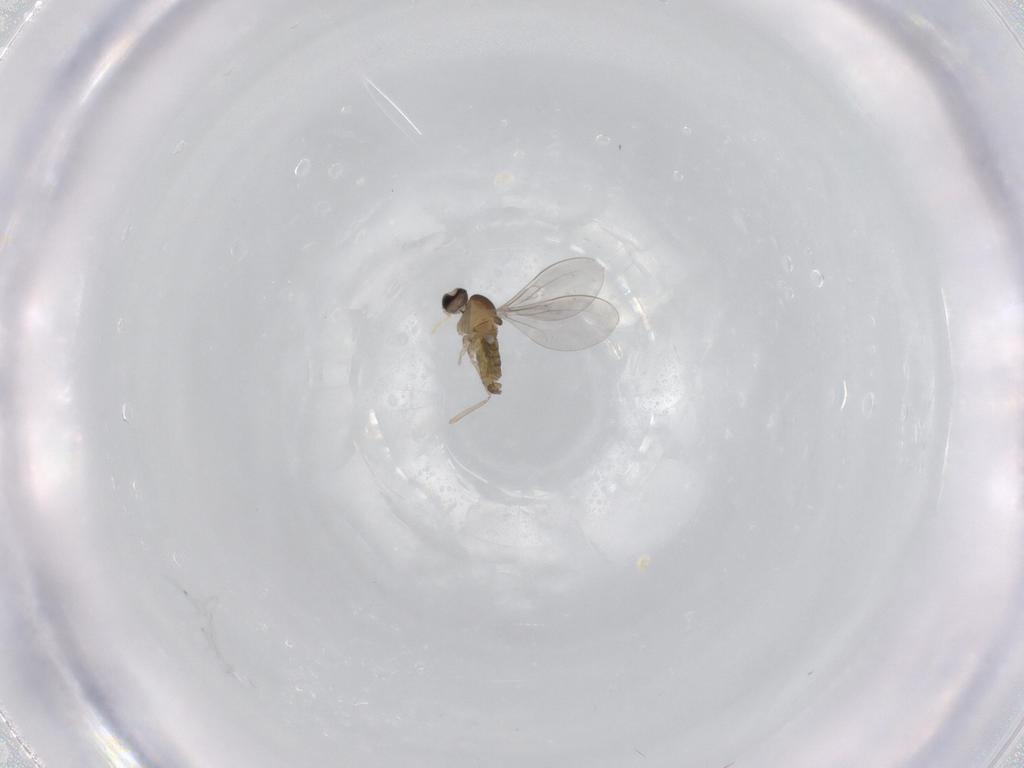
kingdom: Animalia
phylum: Arthropoda
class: Insecta
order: Diptera
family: Cecidomyiidae
